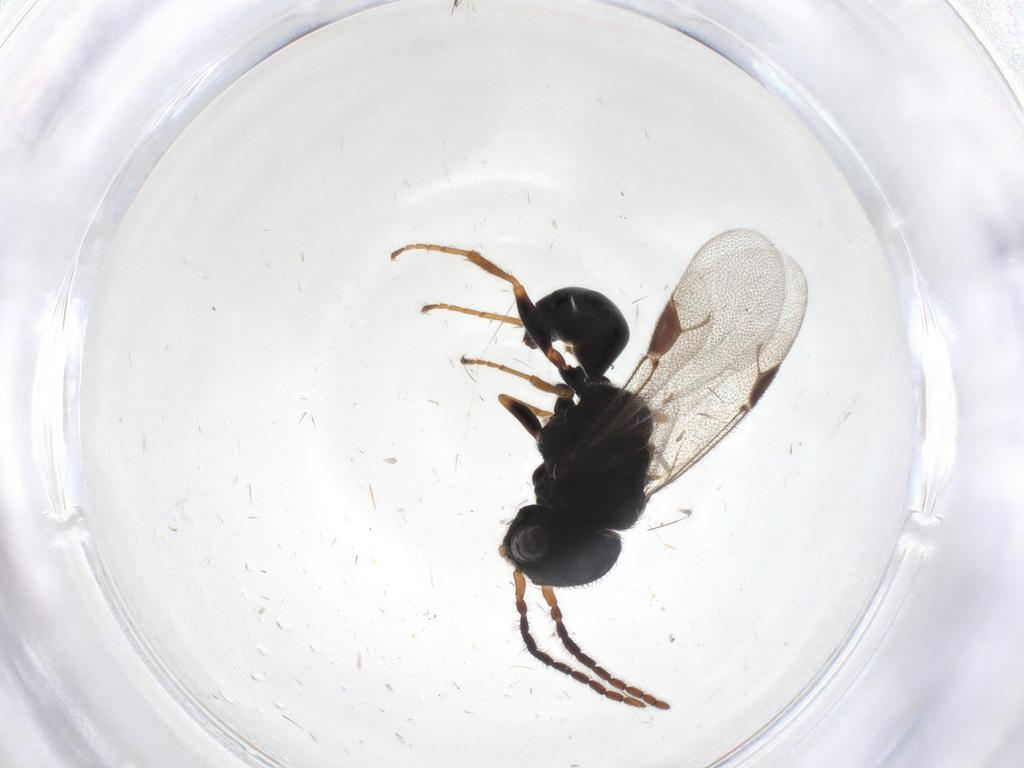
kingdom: Animalia
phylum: Arthropoda
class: Insecta
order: Hymenoptera
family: Dryinidae
